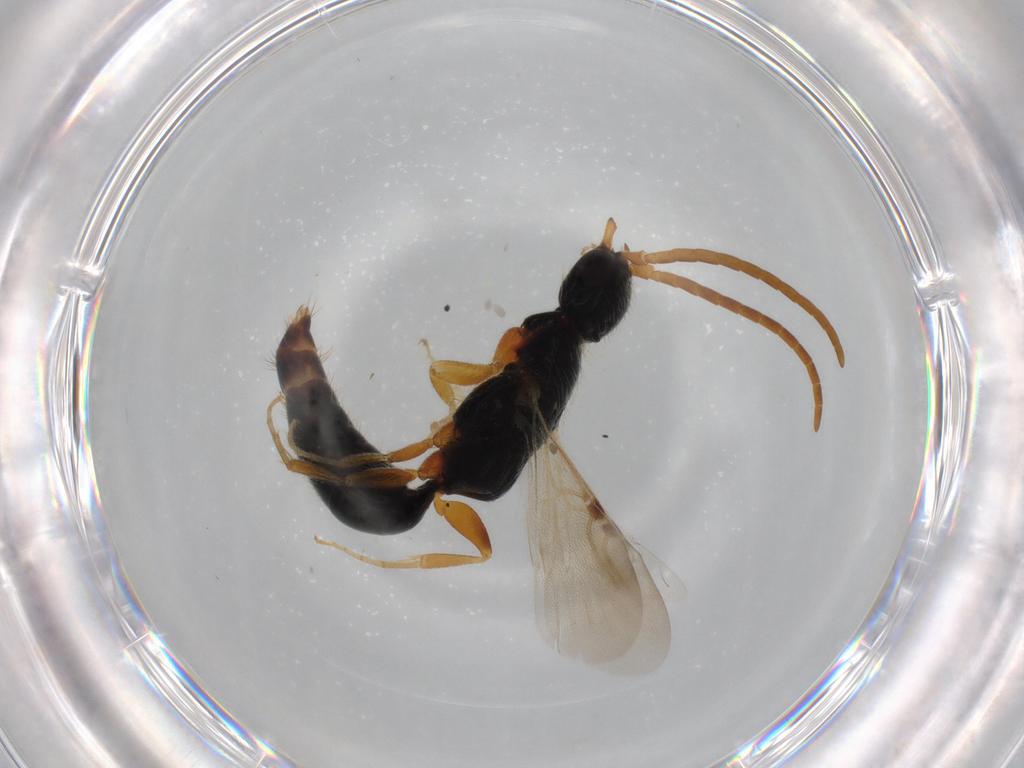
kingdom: Animalia
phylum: Arthropoda
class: Insecta
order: Hymenoptera
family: Bethylidae
